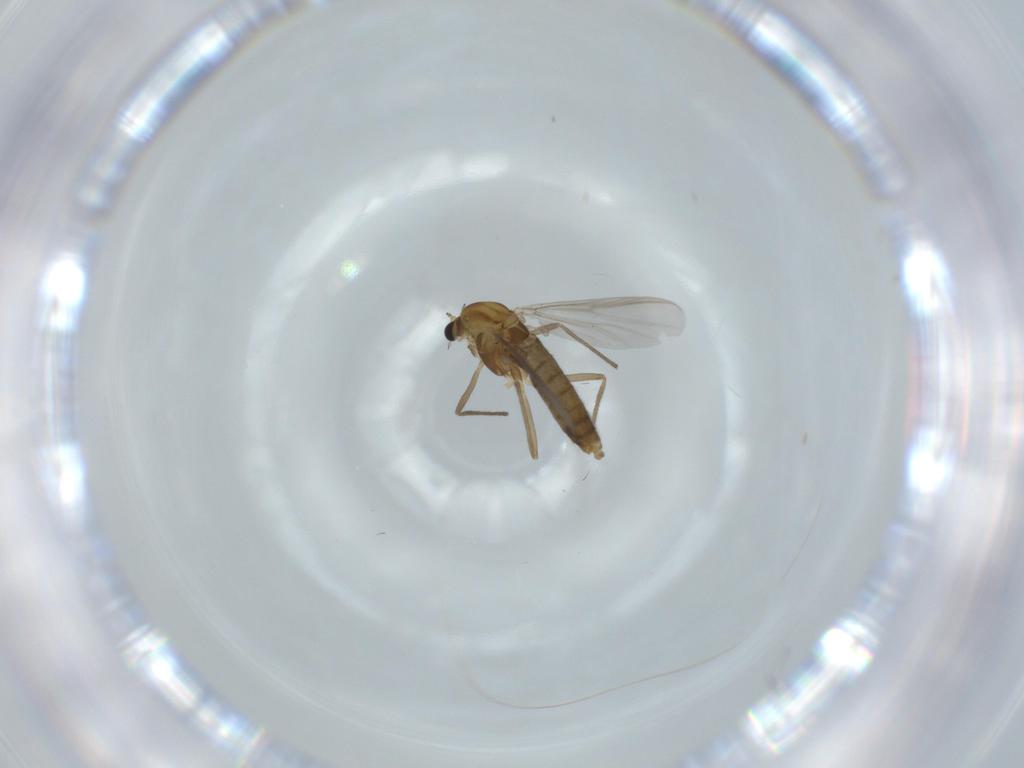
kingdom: Animalia
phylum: Arthropoda
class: Insecta
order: Diptera
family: Chironomidae
